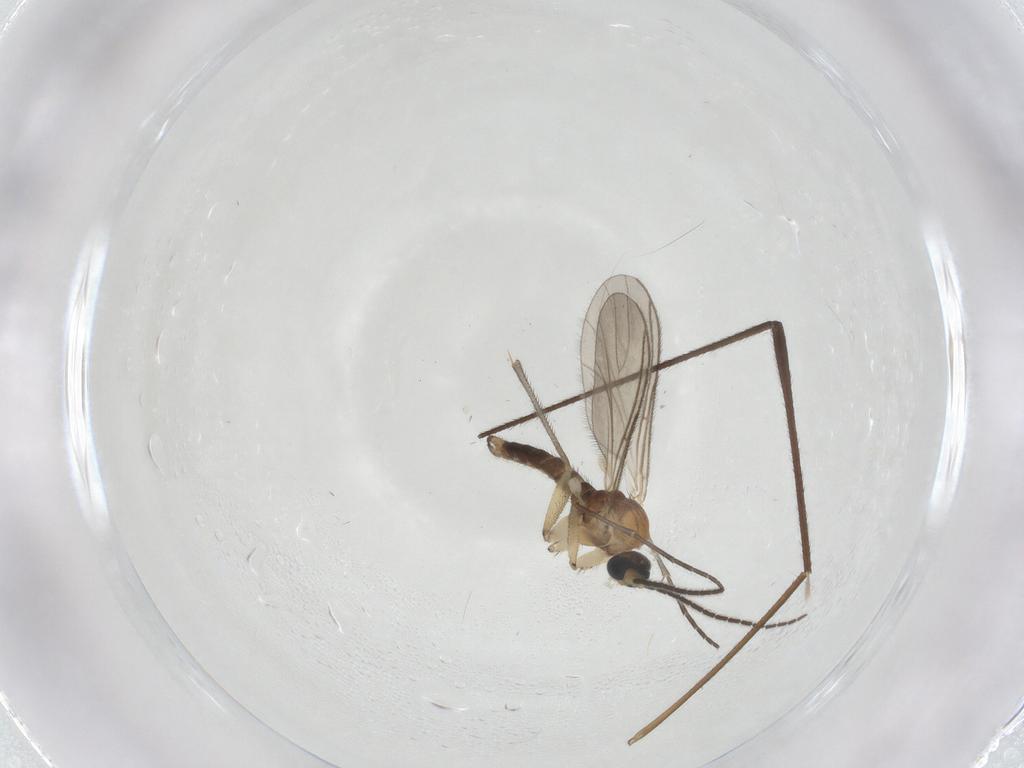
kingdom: Animalia
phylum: Arthropoda
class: Insecta
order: Diptera
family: Sciaridae
